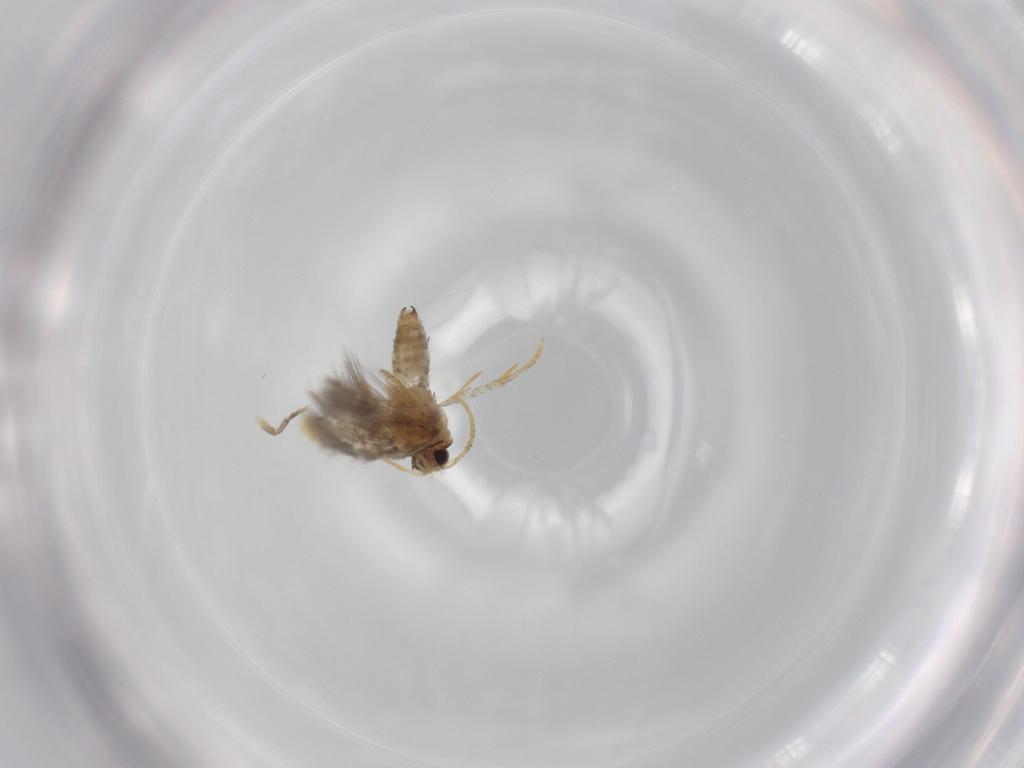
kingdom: Animalia
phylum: Arthropoda
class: Insecta
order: Lepidoptera
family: Copromorphidae
